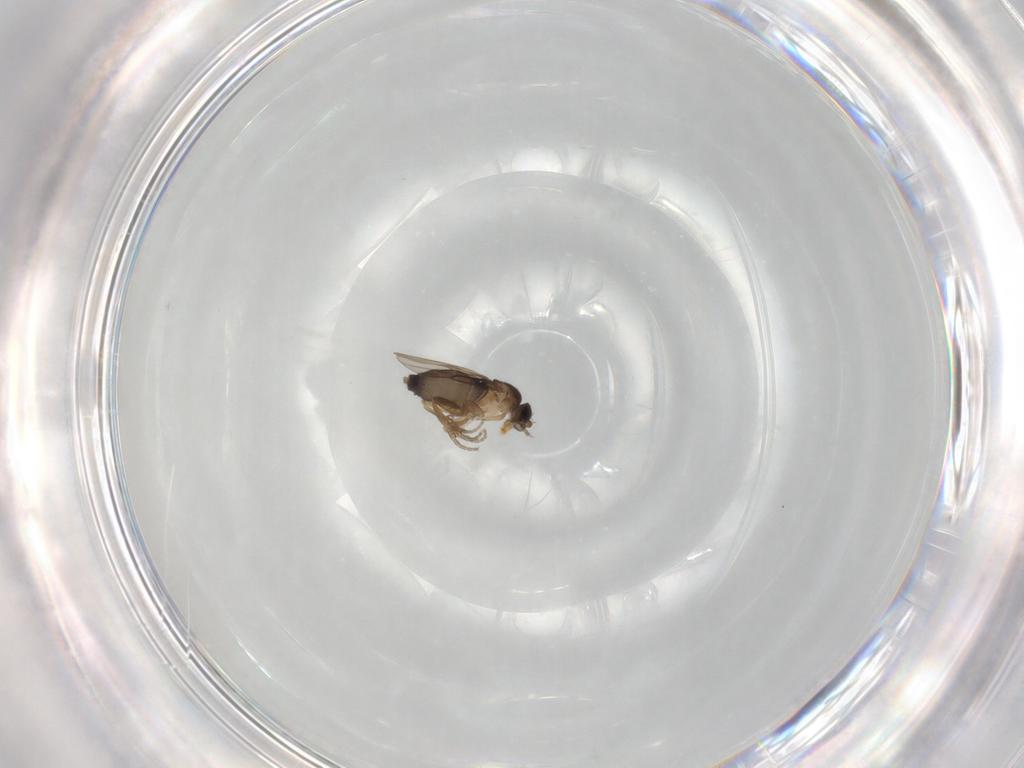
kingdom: Animalia
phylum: Arthropoda
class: Insecta
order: Diptera
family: Phoridae
